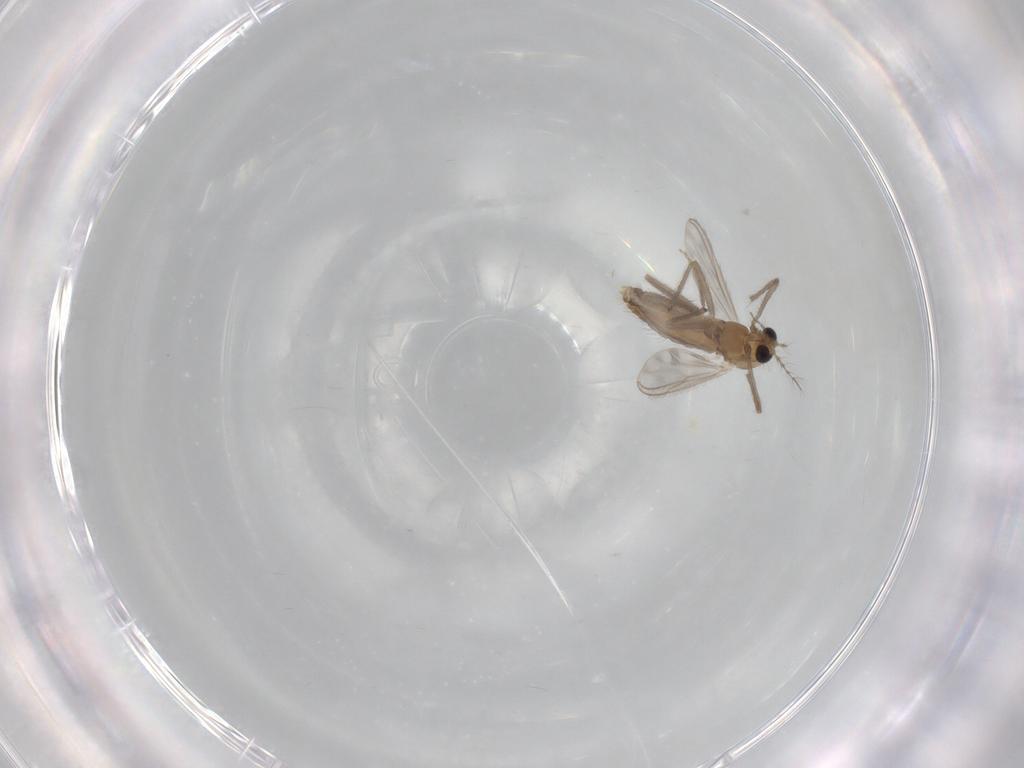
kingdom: Animalia
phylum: Arthropoda
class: Insecta
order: Diptera
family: Chironomidae
